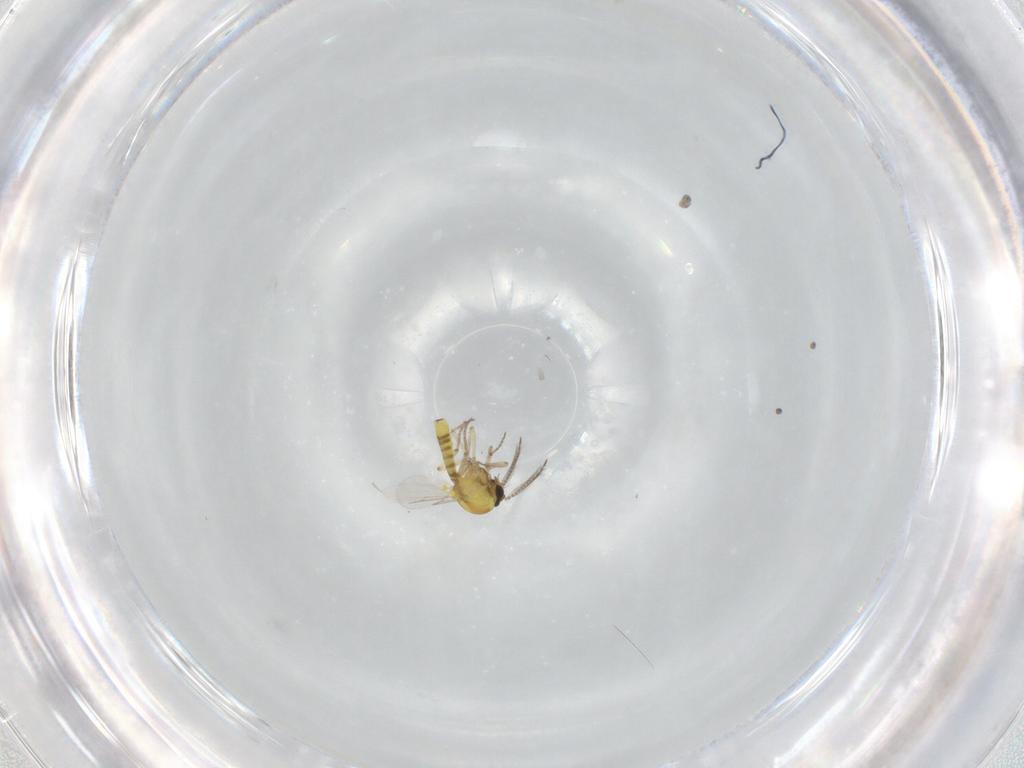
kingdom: Animalia
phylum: Arthropoda
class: Insecta
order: Diptera
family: Ceratopogonidae
